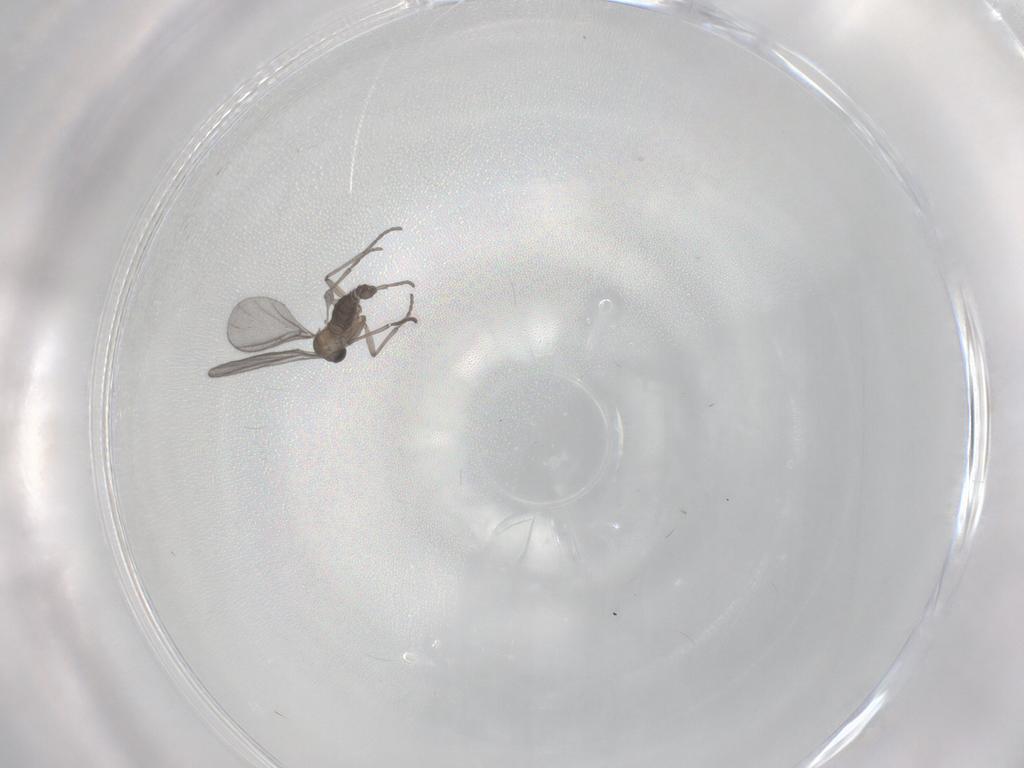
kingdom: Animalia
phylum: Arthropoda
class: Insecta
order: Diptera
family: Sciaridae
